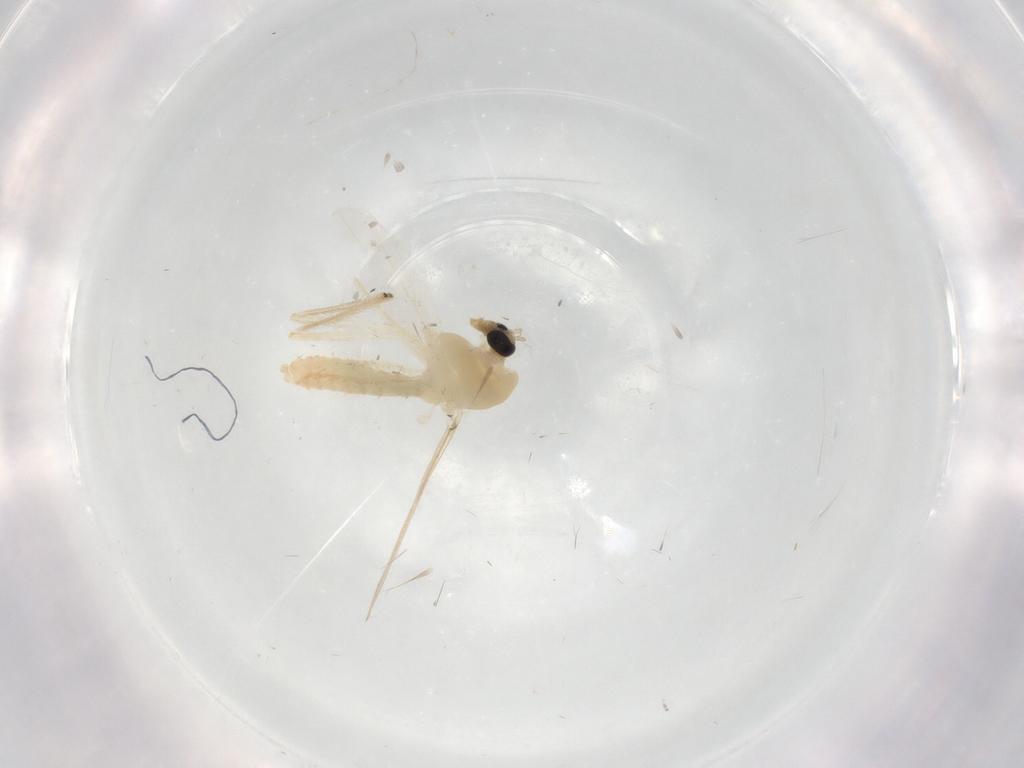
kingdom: Animalia
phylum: Arthropoda
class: Insecta
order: Diptera
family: Chironomidae
